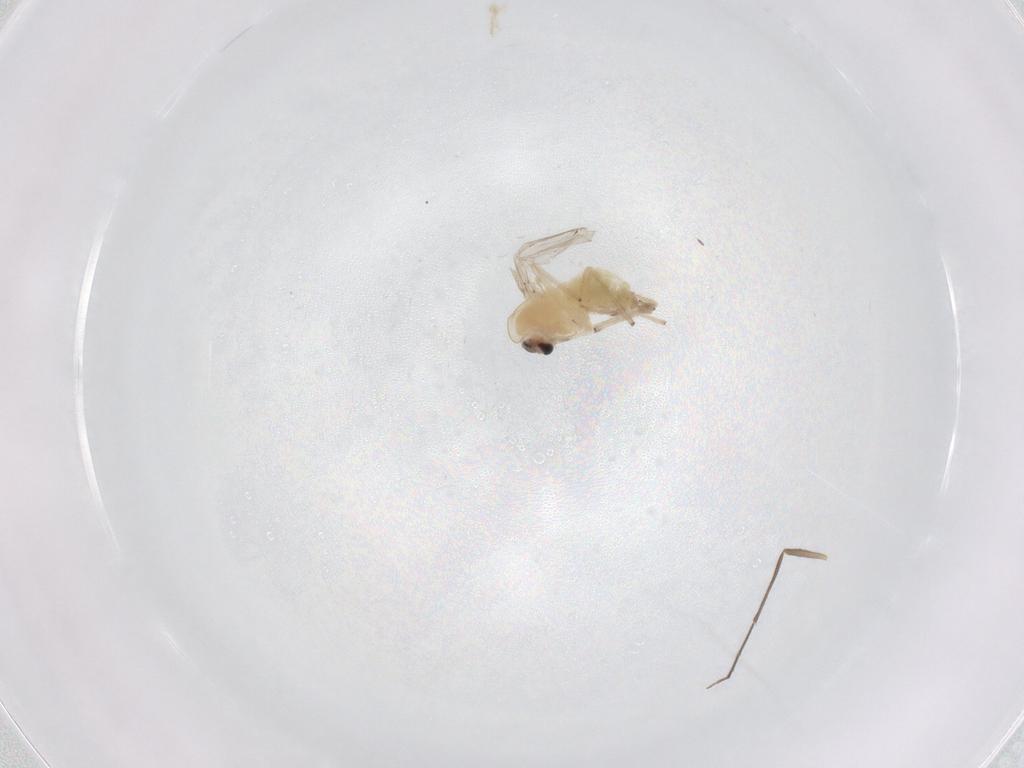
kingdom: Animalia
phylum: Arthropoda
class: Insecta
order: Diptera
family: Chironomidae
